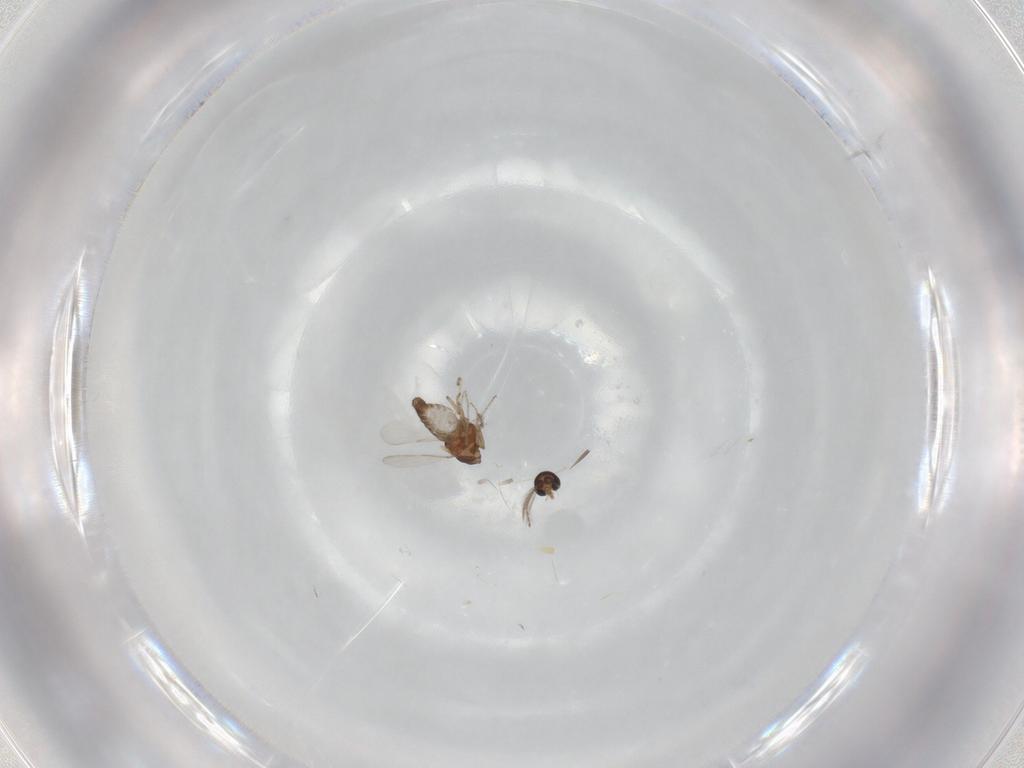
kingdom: Animalia
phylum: Arthropoda
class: Insecta
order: Diptera
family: Ceratopogonidae
